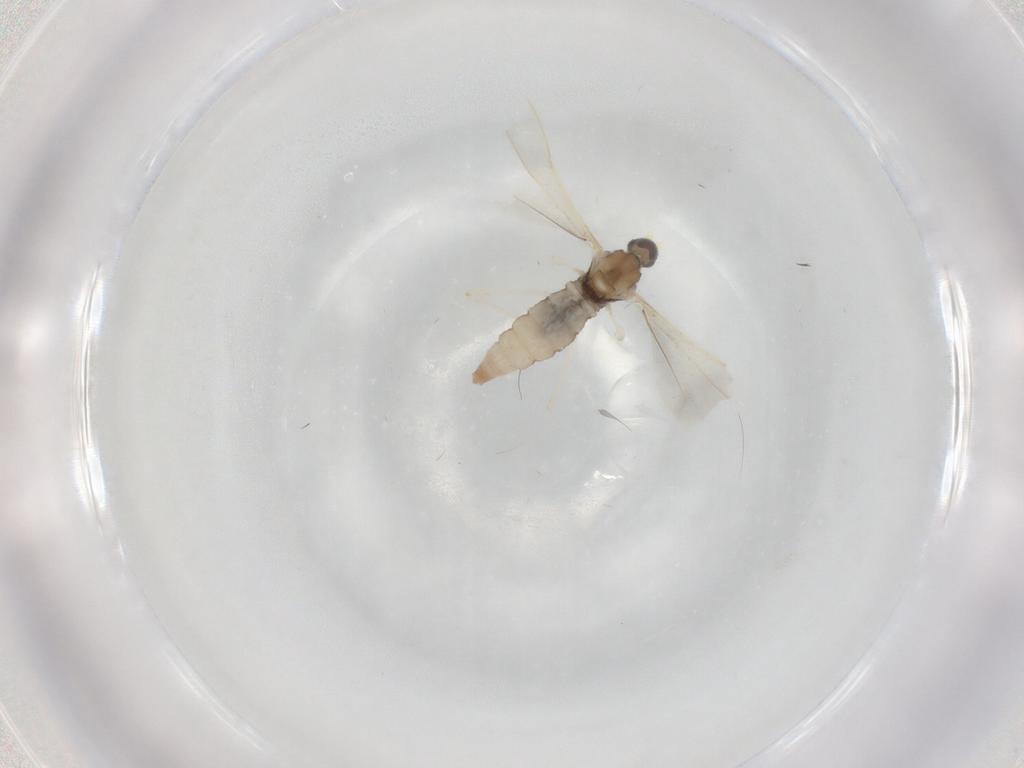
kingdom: Animalia
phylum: Arthropoda
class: Insecta
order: Diptera
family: Cecidomyiidae
